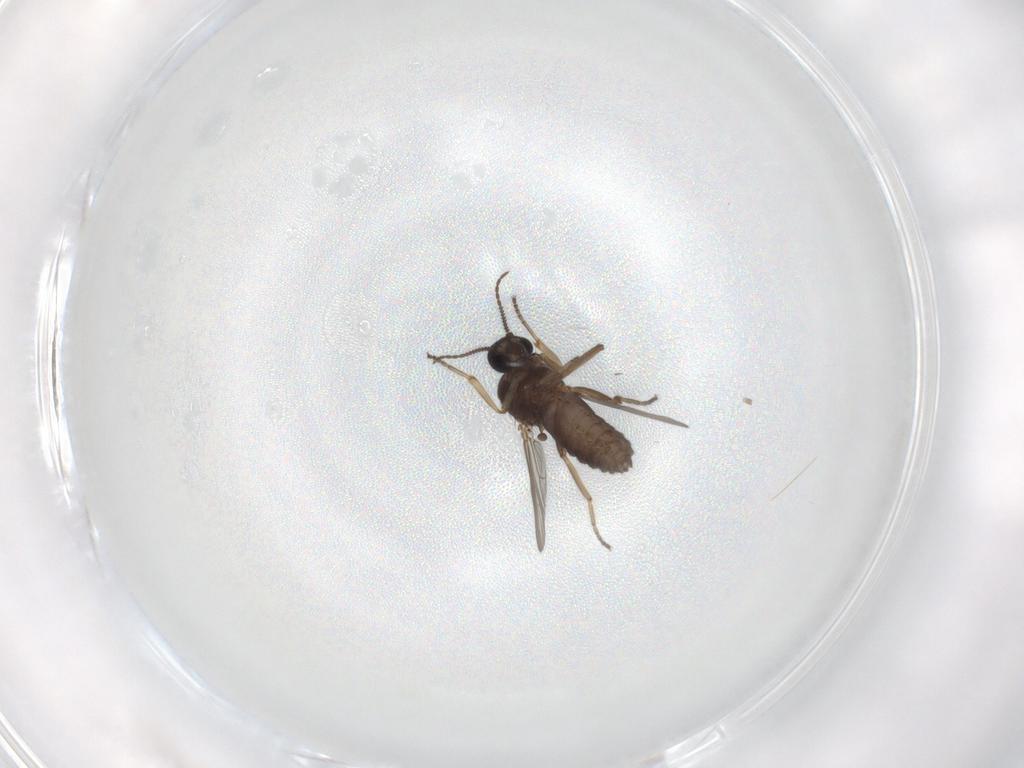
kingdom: Animalia
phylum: Arthropoda
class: Insecta
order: Diptera
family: Ceratopogonidae
